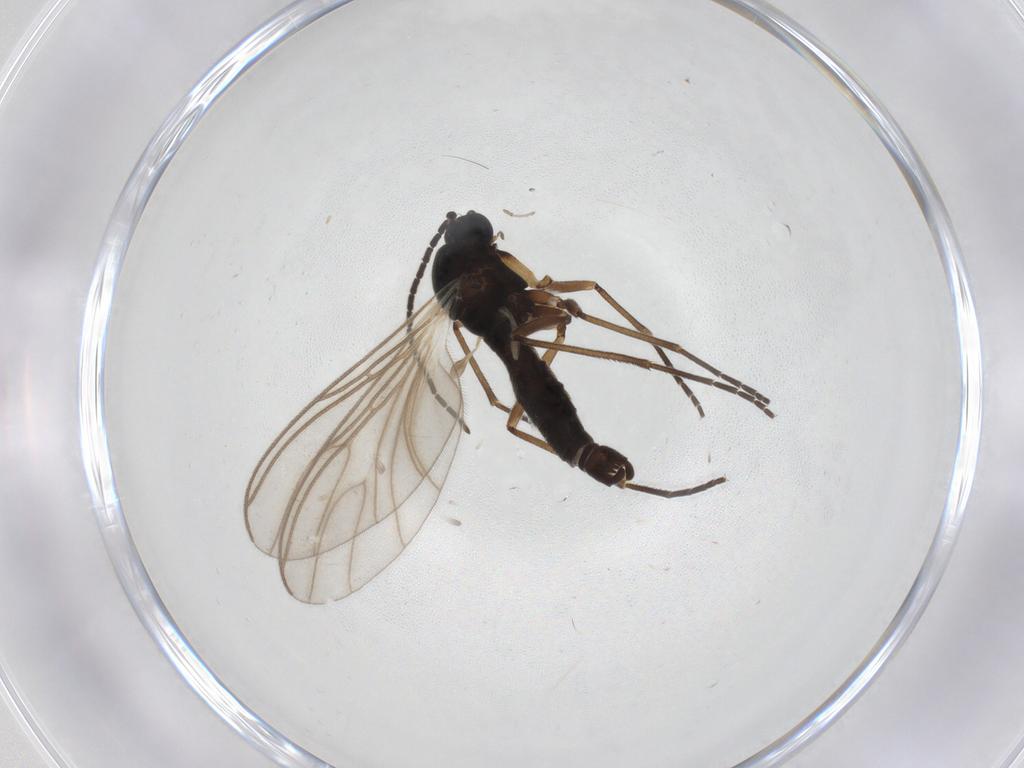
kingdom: Animalia
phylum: Arthropoda
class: Insecta
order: Diptera
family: Sciaridae
